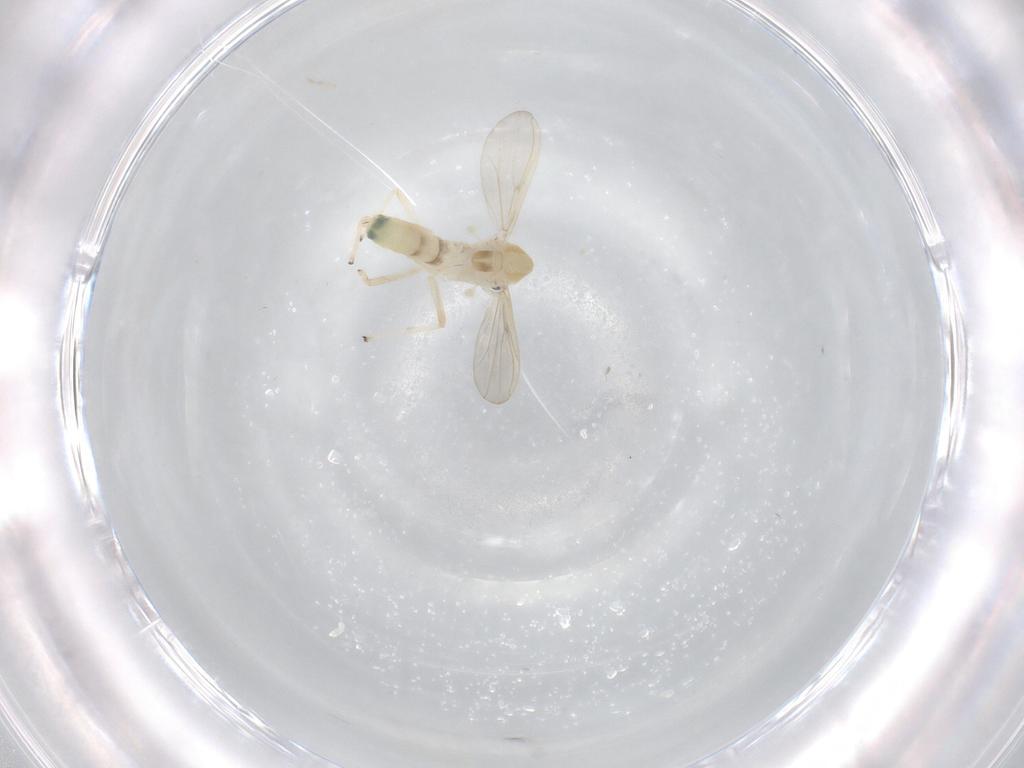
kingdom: Animalia
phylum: Arthropoda
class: Insecta
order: Diptera
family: Chironomidae
